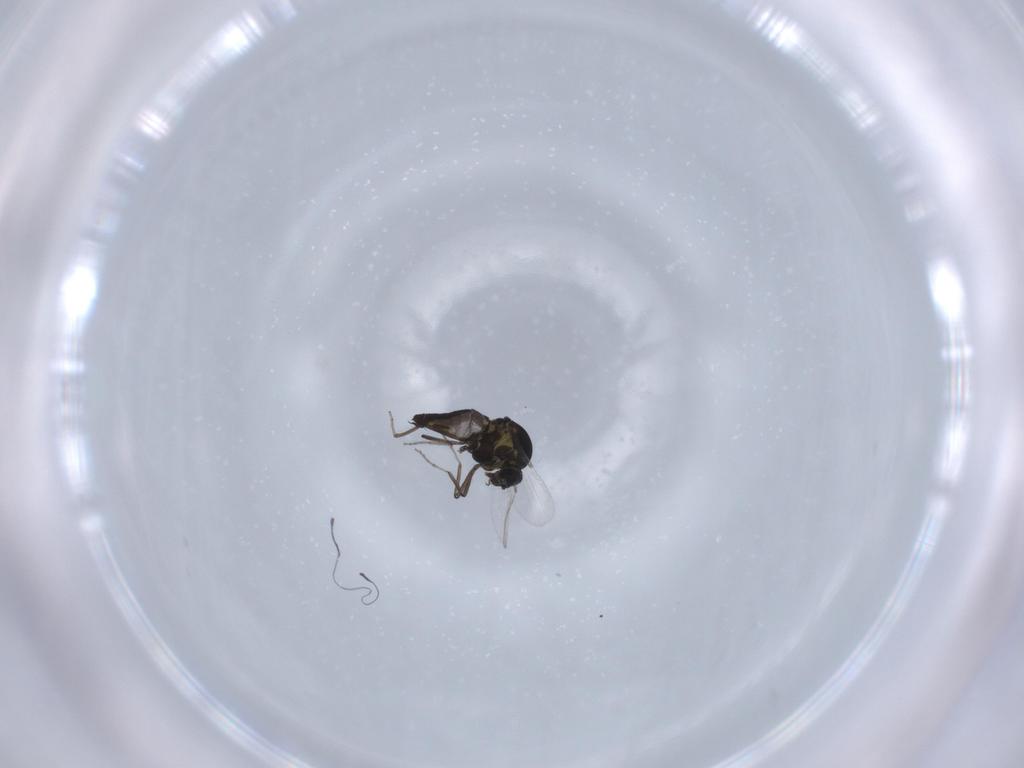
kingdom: Animalia
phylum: Arthropoda
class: Insecta
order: Diptera
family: Ceratopogonidae
